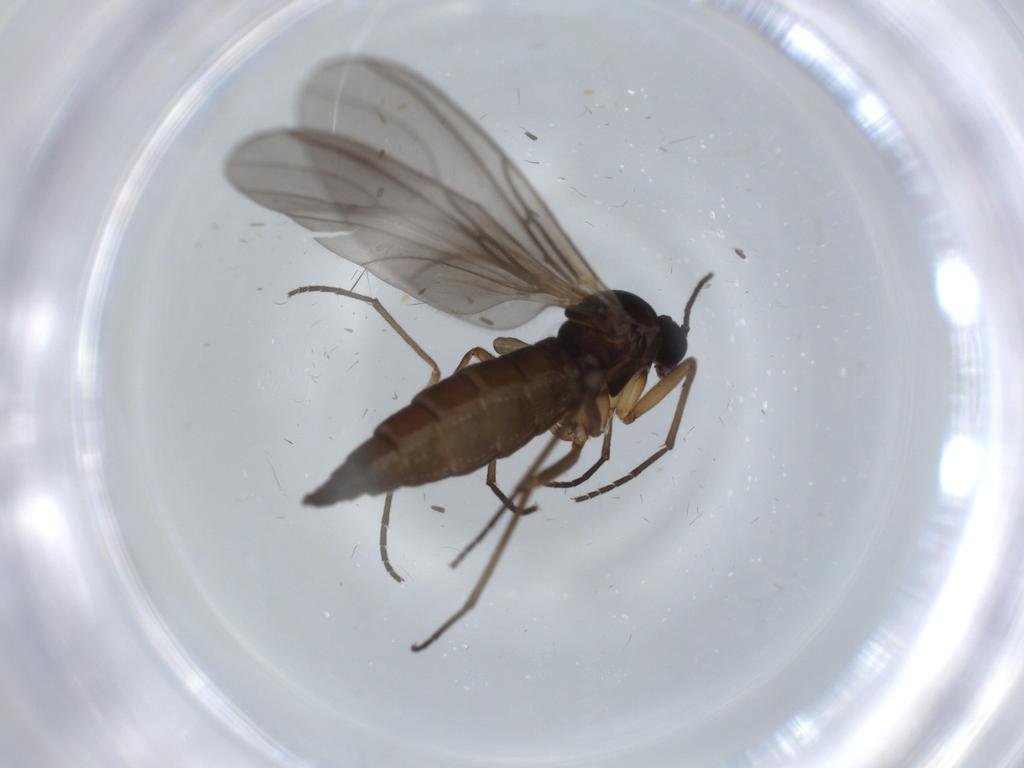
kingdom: Animalia
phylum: Arthropoda
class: Insecta
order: Diptera
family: Sciaridae
